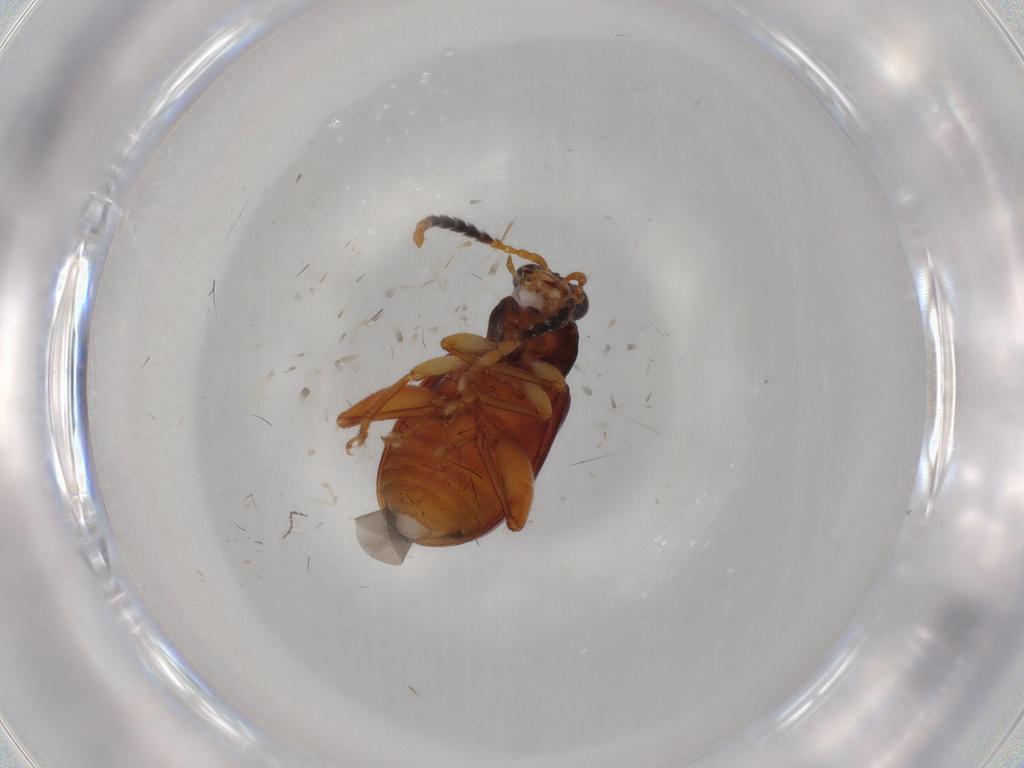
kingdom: Animalia
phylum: Arthropoda
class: Insecta
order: Coleoptera
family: Chrysomelidae
